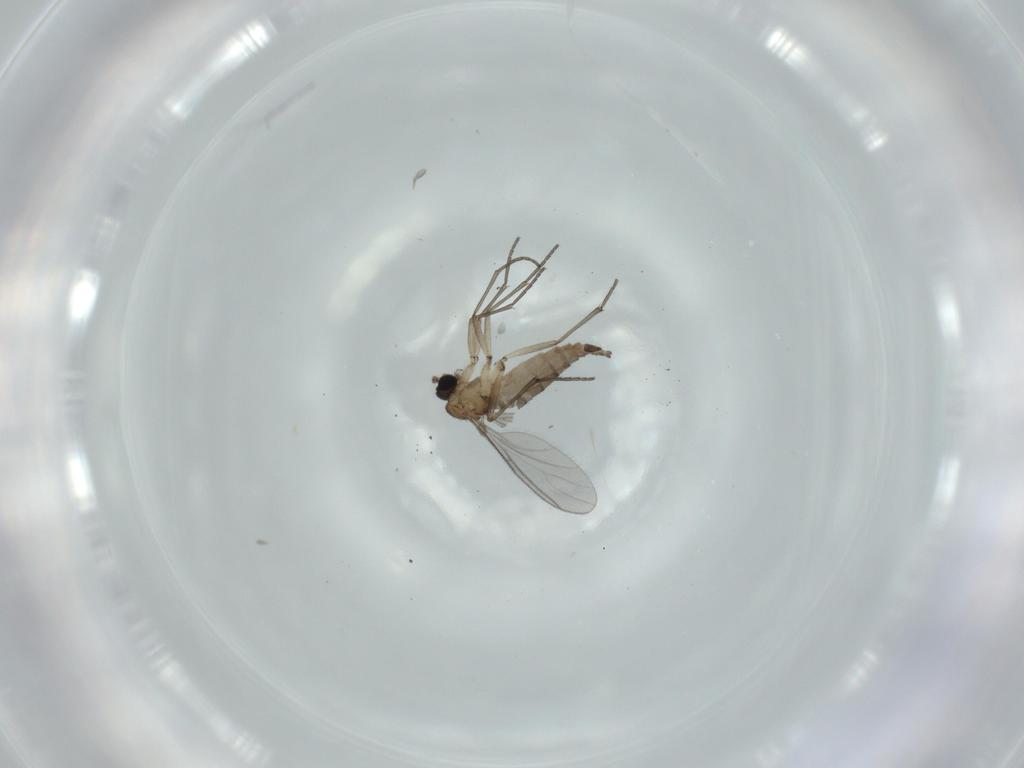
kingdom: Animalia
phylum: Arthropoda
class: Insecta
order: Diptera
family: Sciaridae
